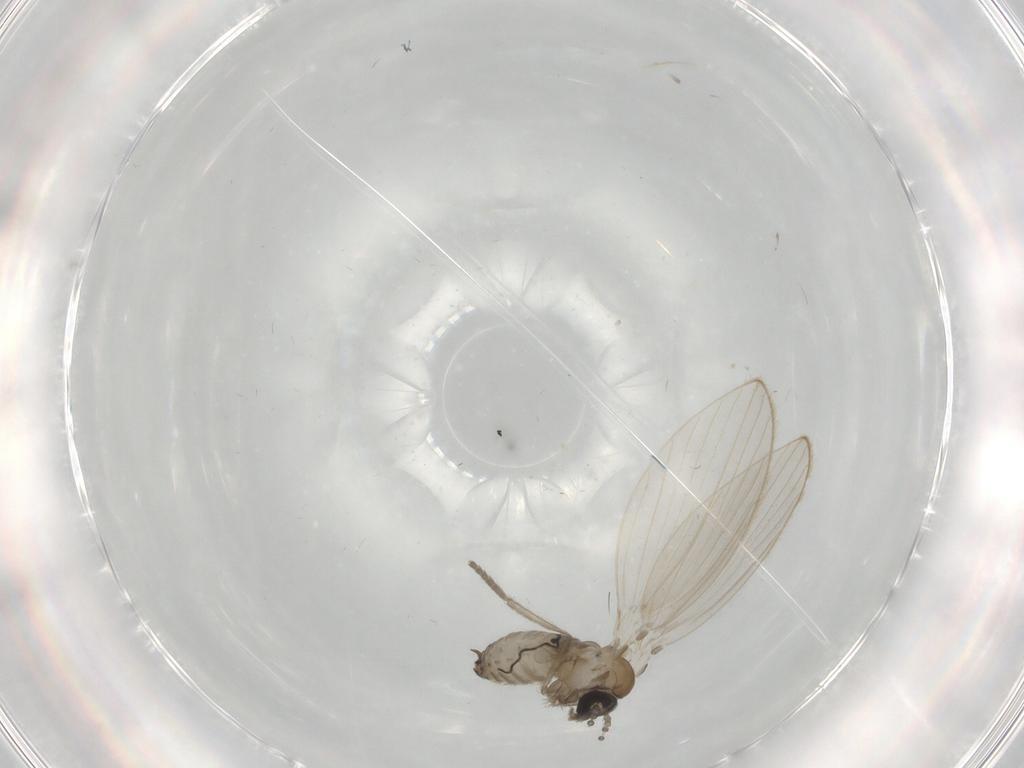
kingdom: Animalia
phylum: Arthropoda
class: Insecta
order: Diptera
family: Psychodidae
